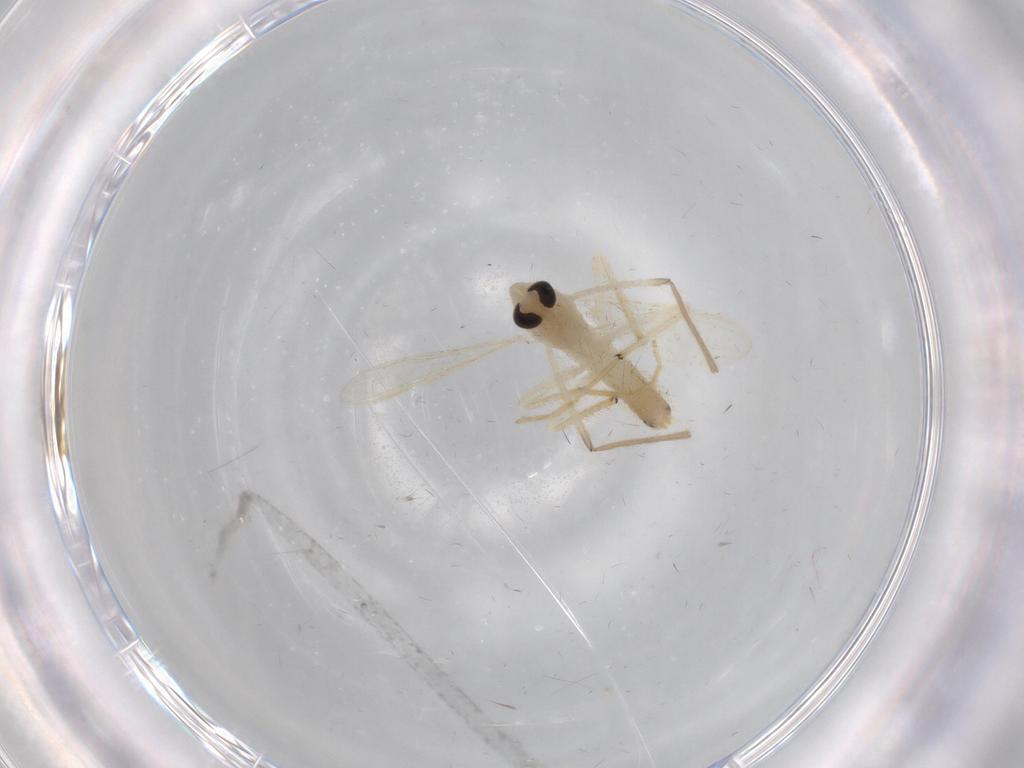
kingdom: Animalia
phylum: Arthropoda
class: Insecta
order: Diptera
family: Chironomidae
